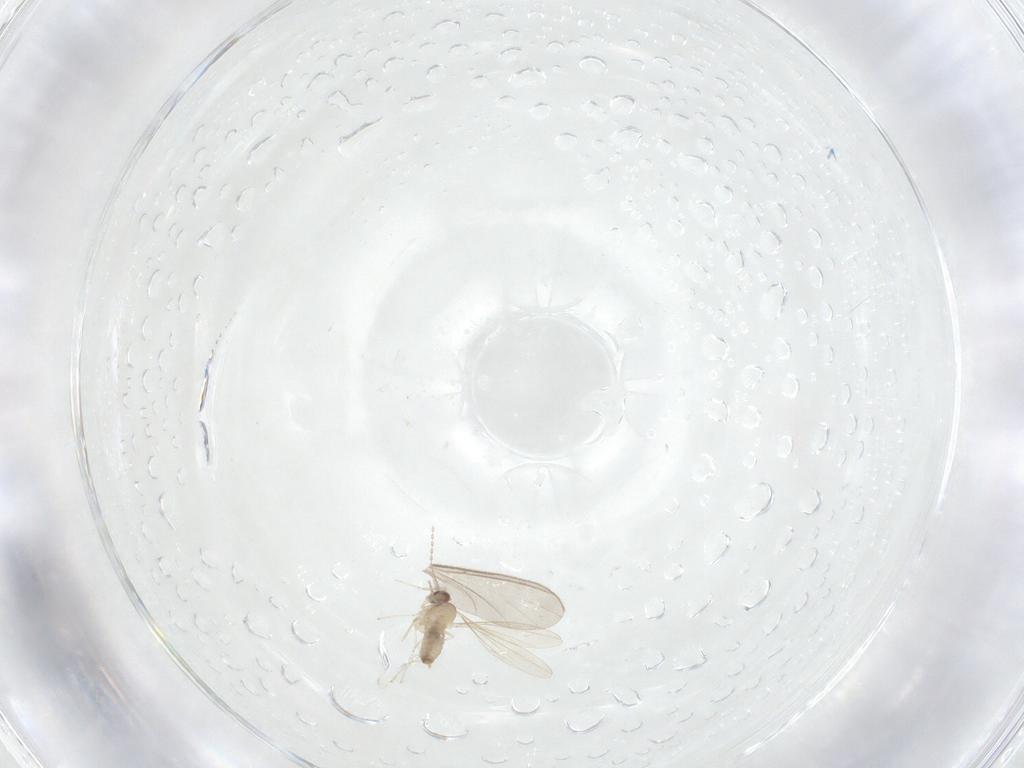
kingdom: Animalia
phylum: Arthropoda
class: Insecta
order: Diptera
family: Cecidomyiidae
